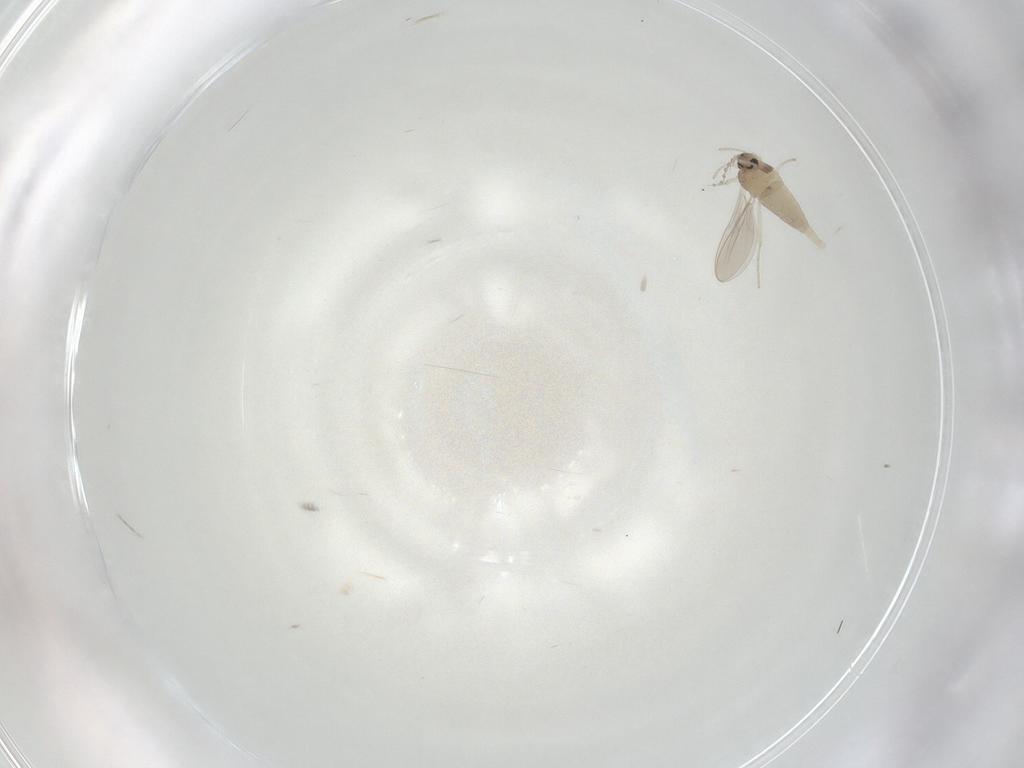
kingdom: Animalia
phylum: Arthropoda
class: Insecta
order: Diptera
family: Cecidomyiidae
